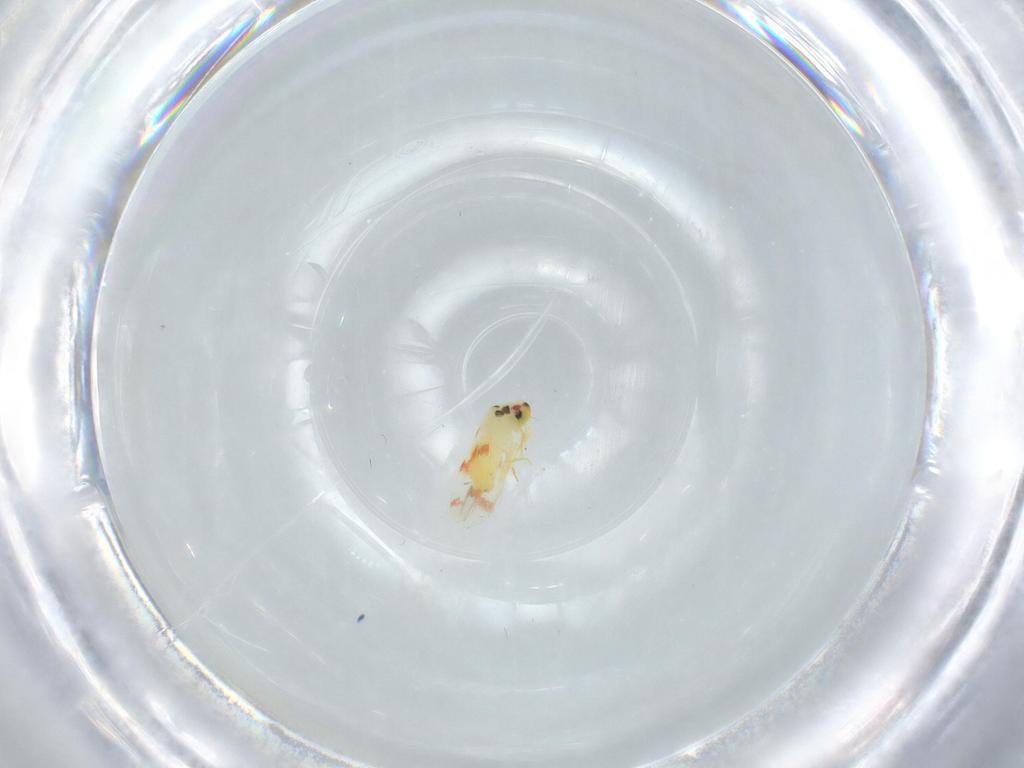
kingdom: Animalia
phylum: Arthropoda
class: Insecta
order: Hemiptera
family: Aleyrodidae
